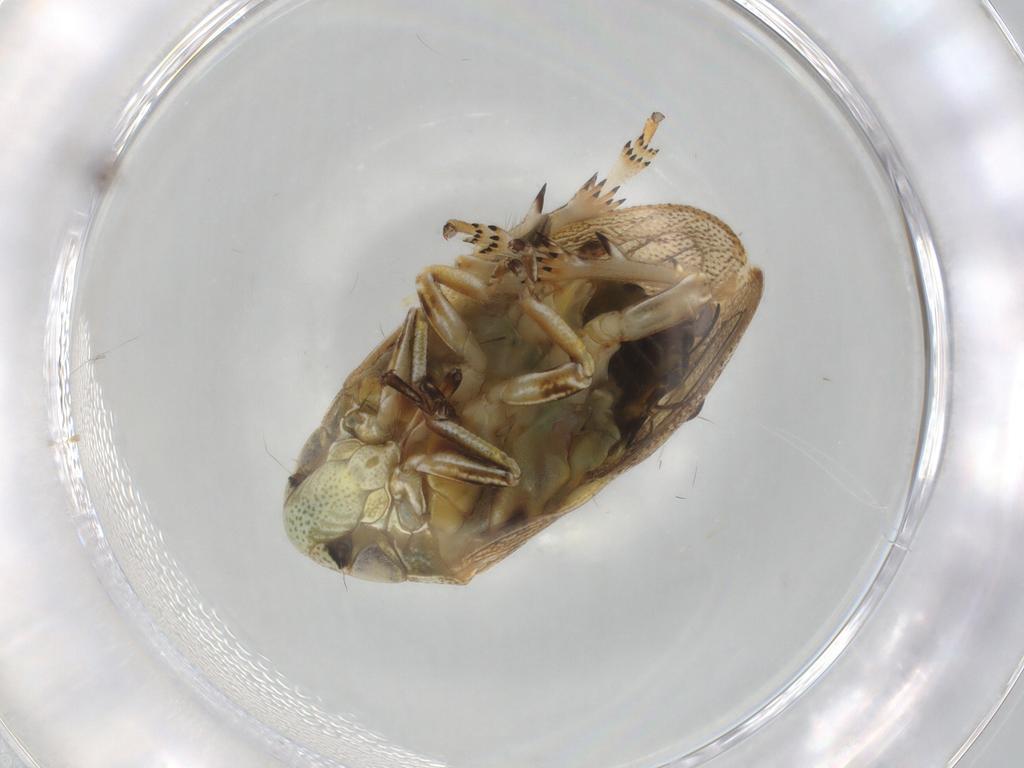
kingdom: Animalia
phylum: Arthropoda
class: Insecta
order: Hemiptera
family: Clastopteridae
